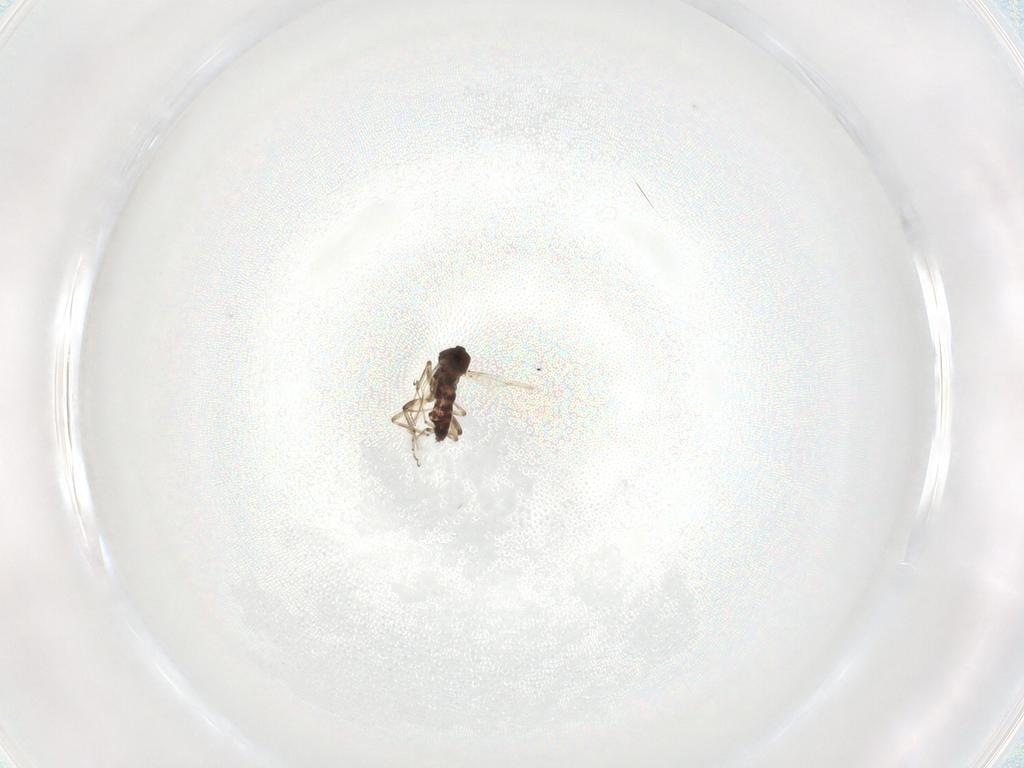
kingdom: Animalia
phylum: Arthropoda
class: Insecta
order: Diptera
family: Ceratopogonidae
